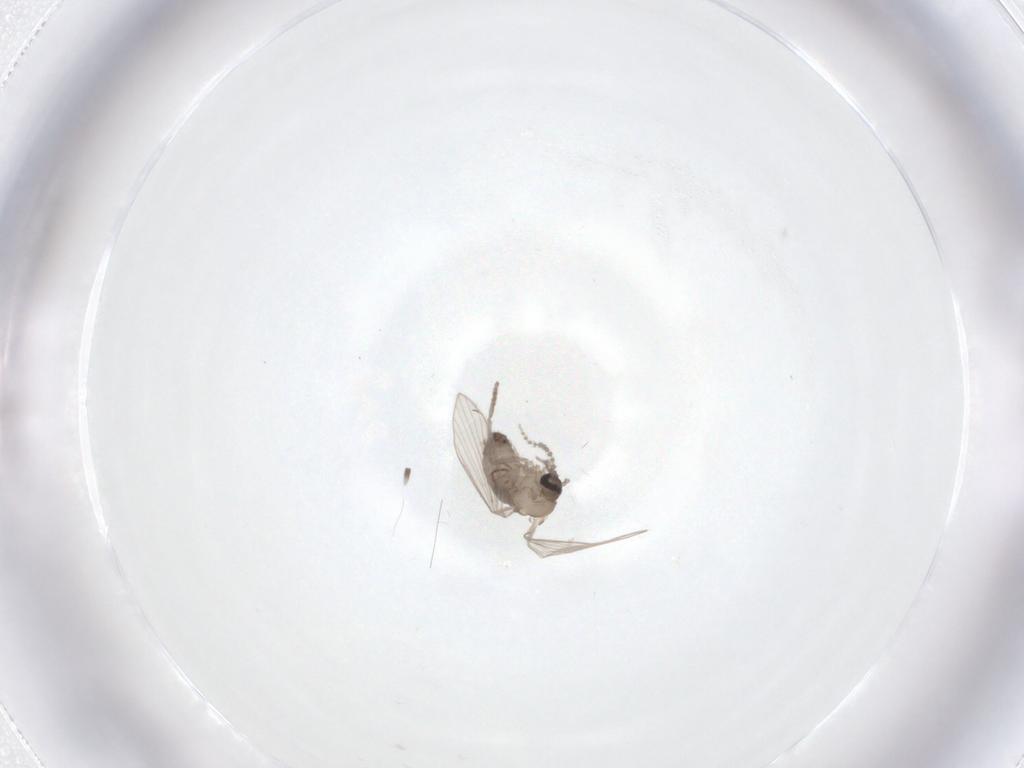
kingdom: Animalia
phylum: Arthropoda
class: Insecta
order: Diptera
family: Psychodidae
